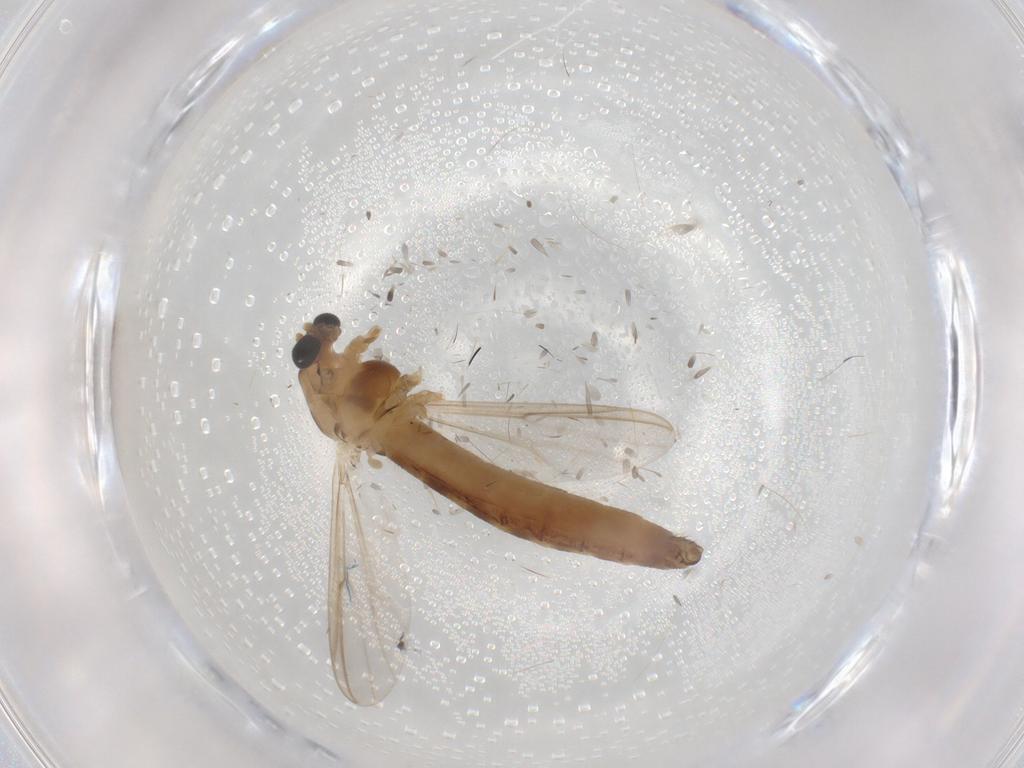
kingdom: Animalia
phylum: Arthropoda
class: Insecta
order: Diptera
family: Chironomidae
